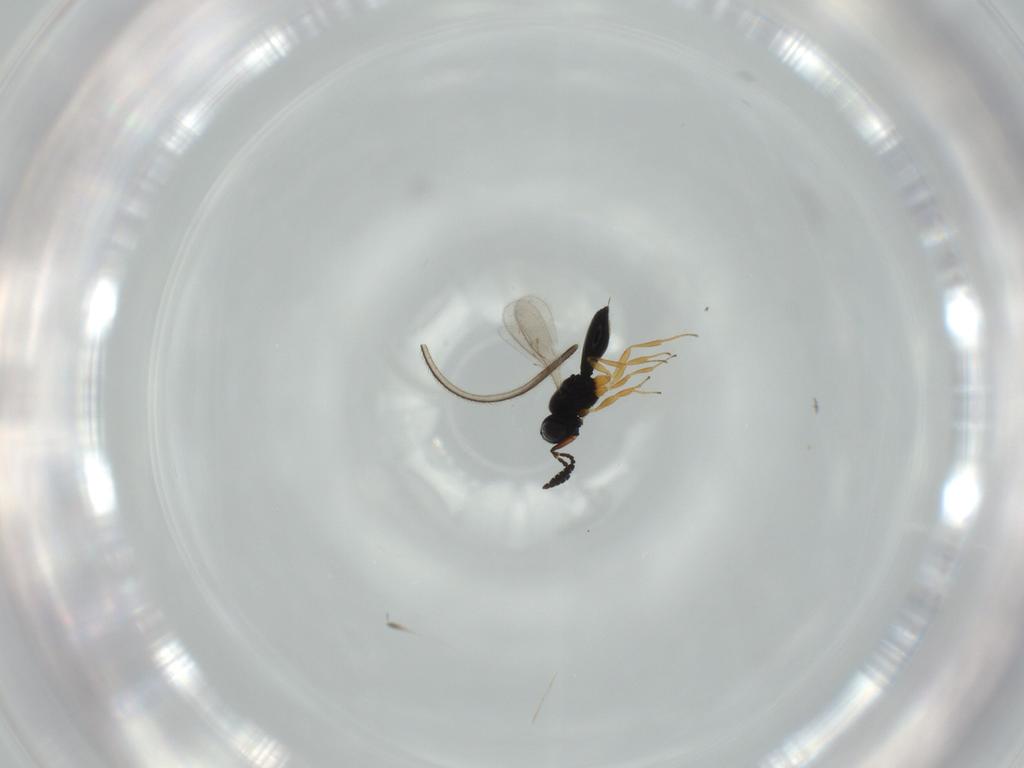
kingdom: Animalia
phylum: Arthropoda
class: Insecta
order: Hymenoptera
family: Scelionidae
